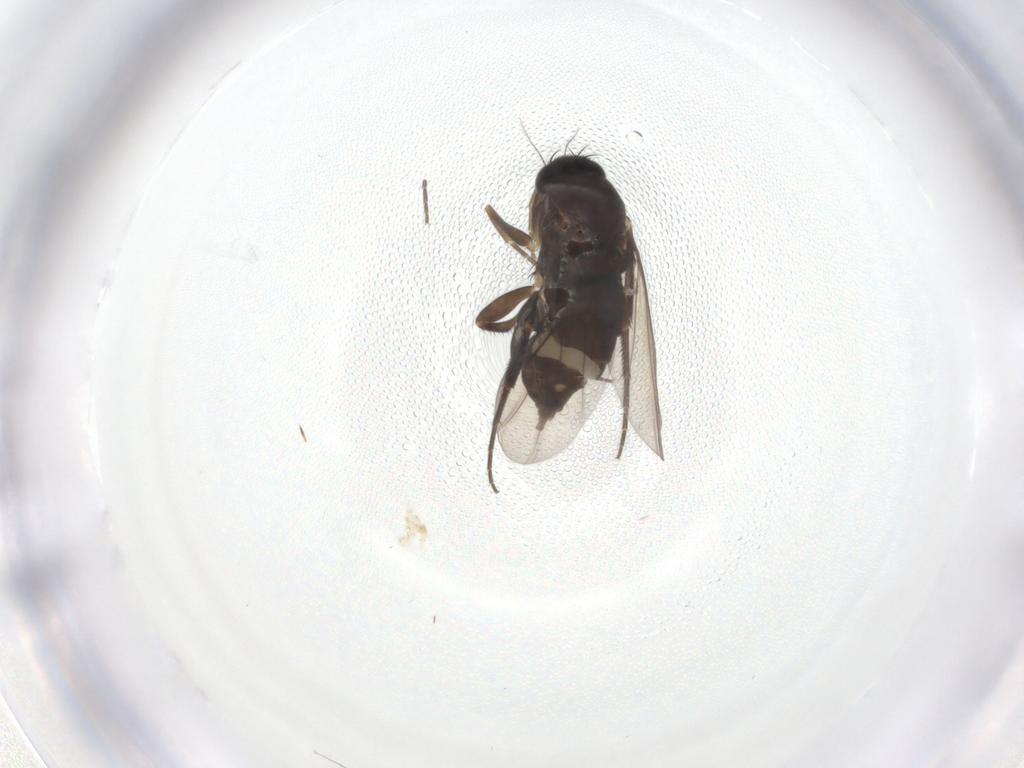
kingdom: Animalia
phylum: Arthropoda
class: Insecta
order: Diptera
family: Phoridae
